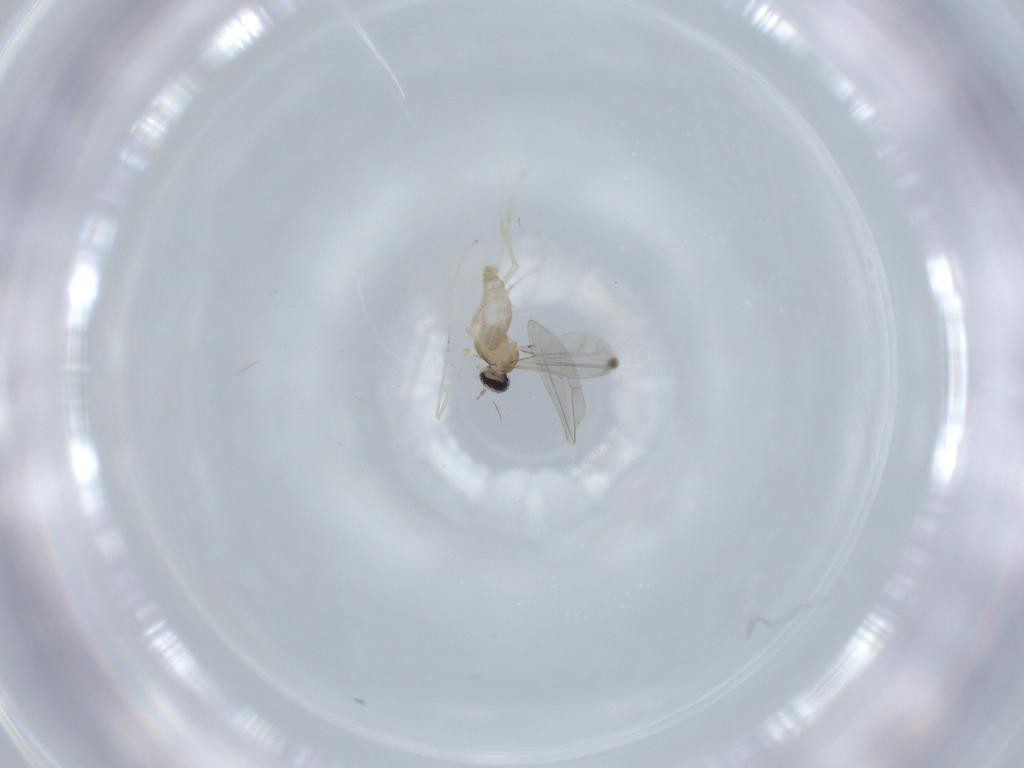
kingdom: Animalia
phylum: Arthropoda
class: Insecta
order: Diptera
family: Cecidomyiidae
